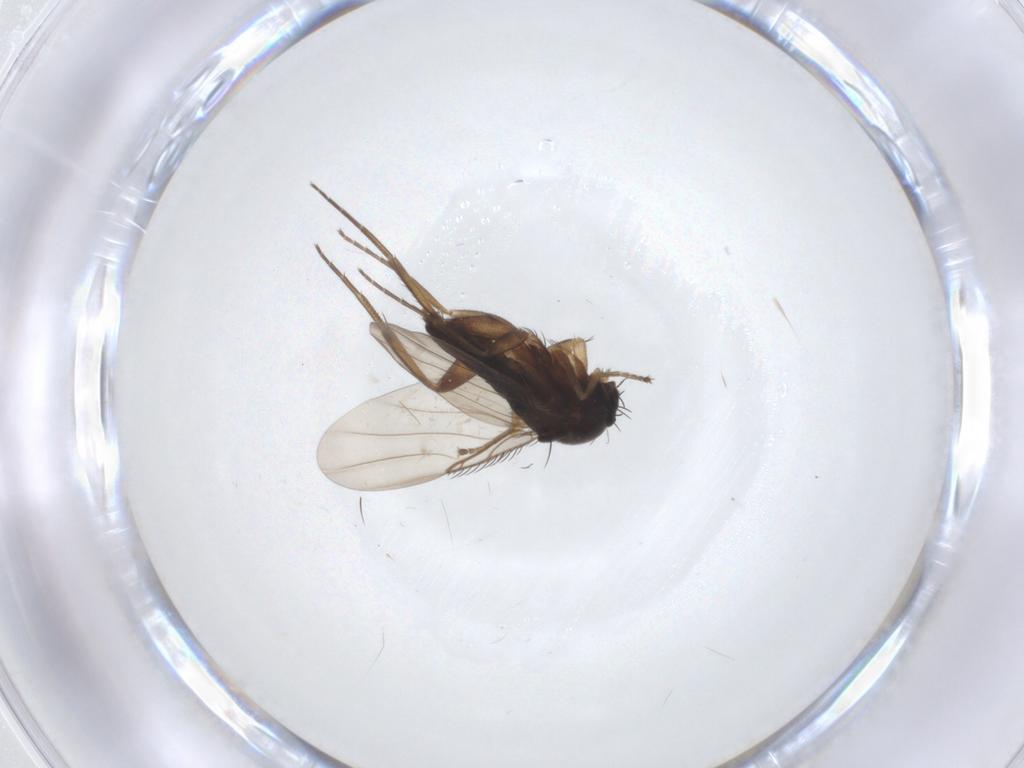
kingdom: Animalia
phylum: Arthropoda
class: Insecta
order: Diptera
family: Phoridae
